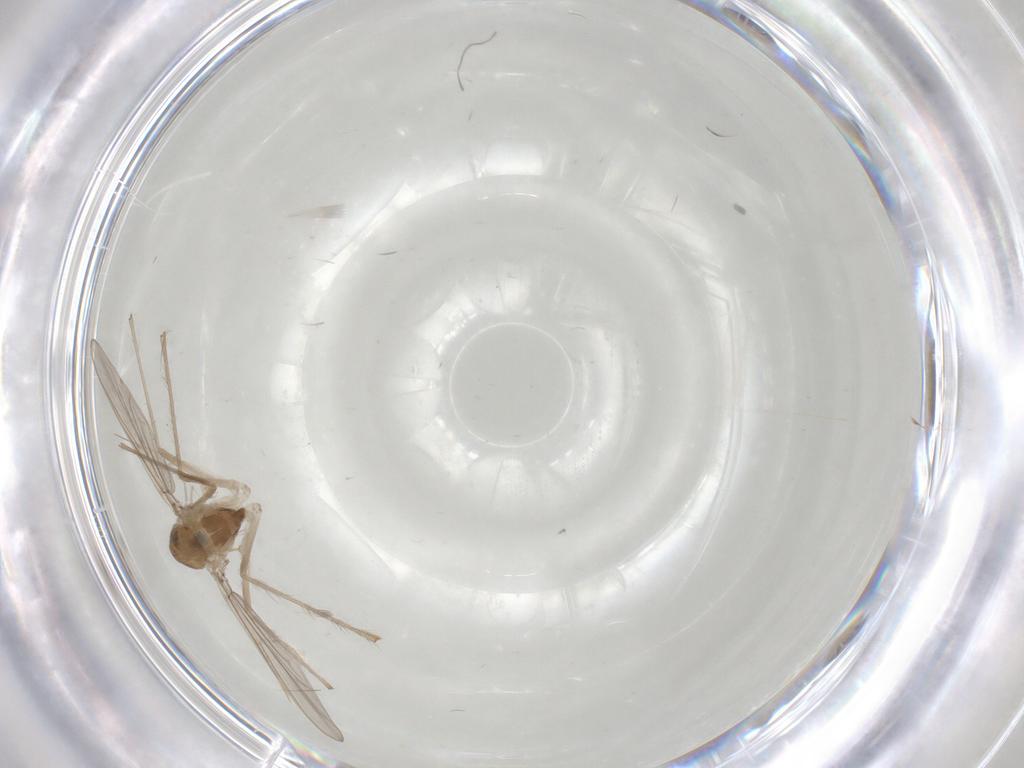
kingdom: Animalia
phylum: Arthropoda
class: Insecta
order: Diptera
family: Chironomidae
